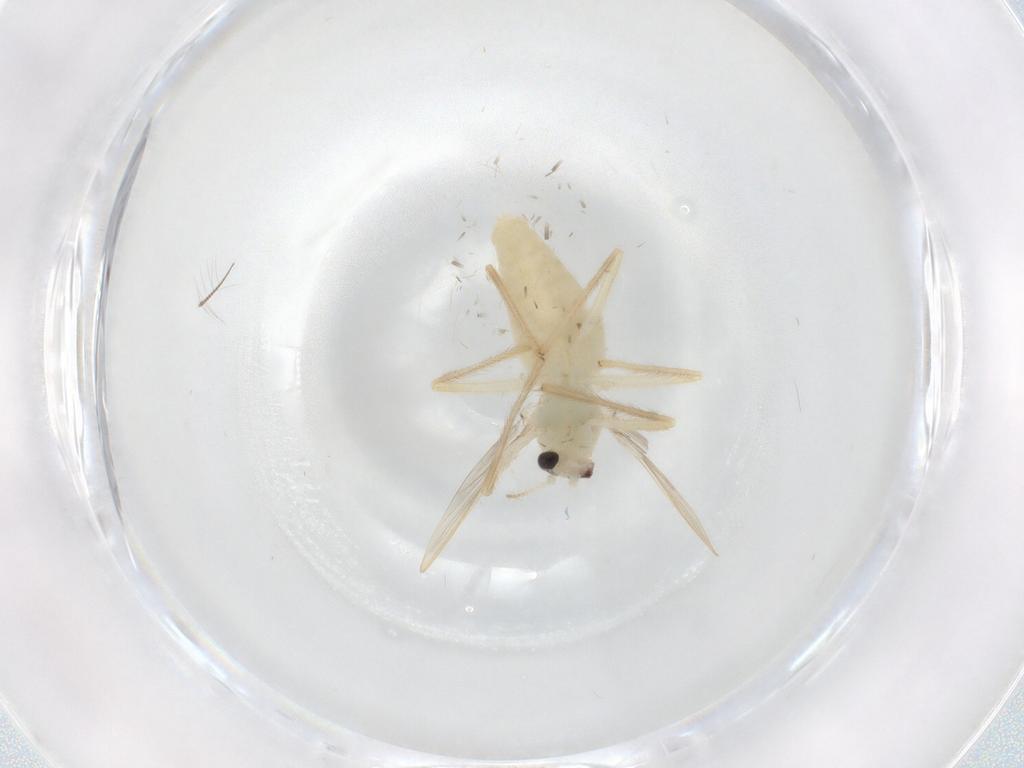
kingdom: Animalia
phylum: Arthropoda
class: Insecta
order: Diptera
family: Chironomidae
